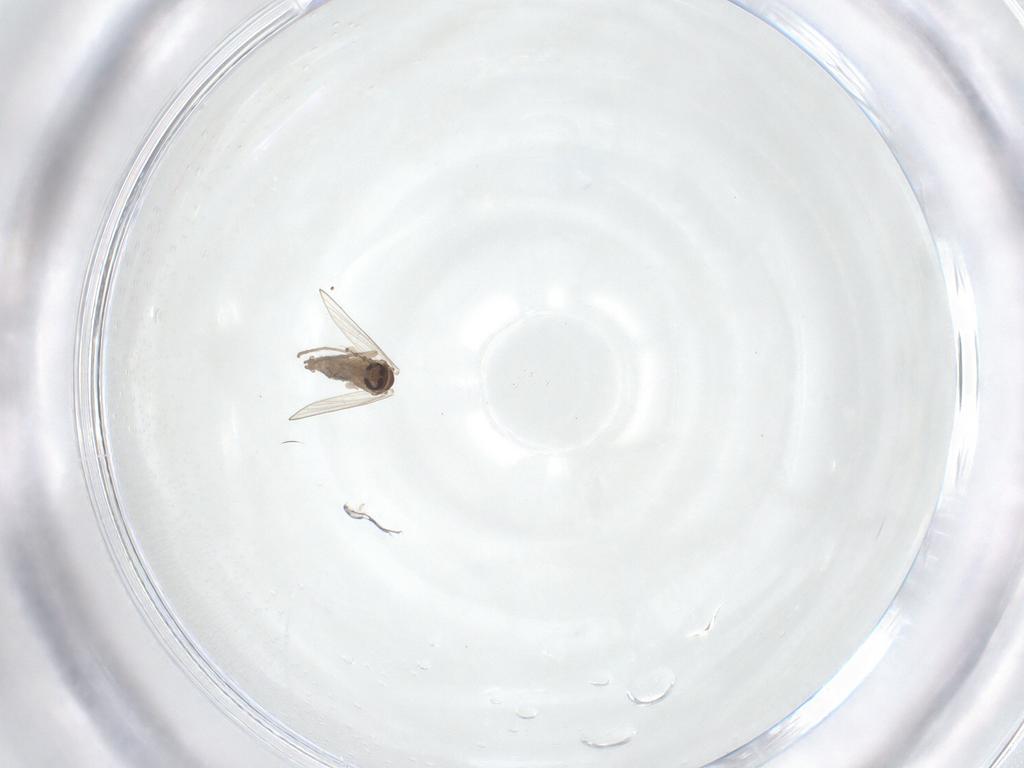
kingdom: Animalia
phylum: Arthropoda
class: Insecta
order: Diptera
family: Psychodidae
